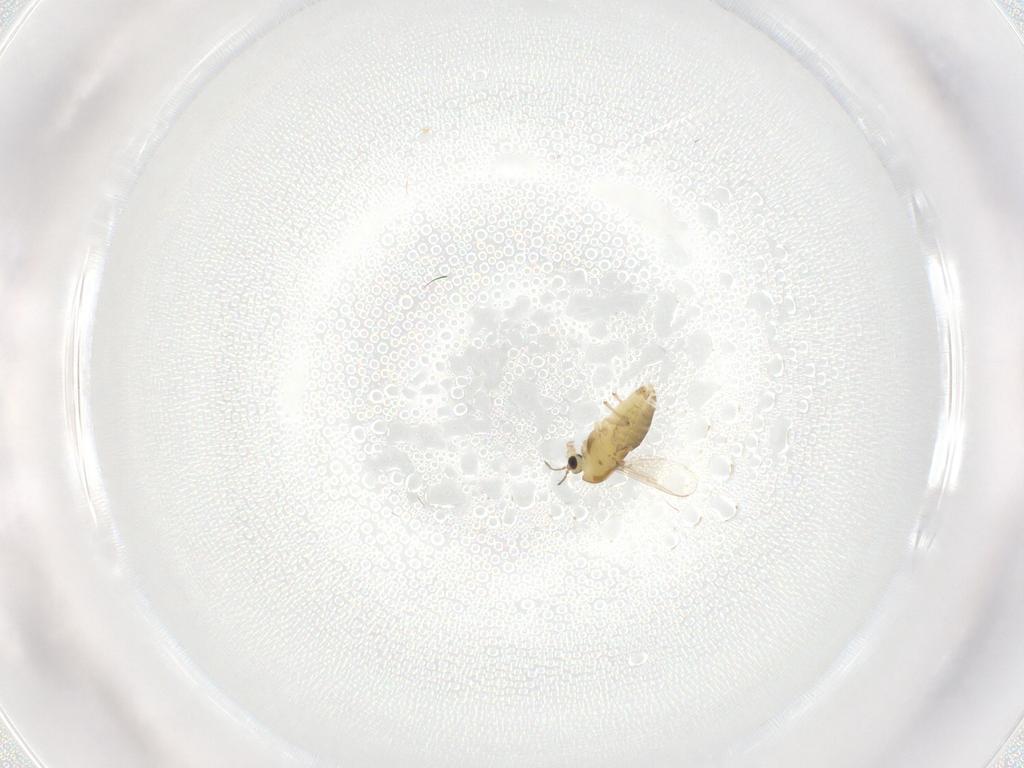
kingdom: Animalia
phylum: Arthropoda
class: Insecta
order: Diptera
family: Chironomidae
